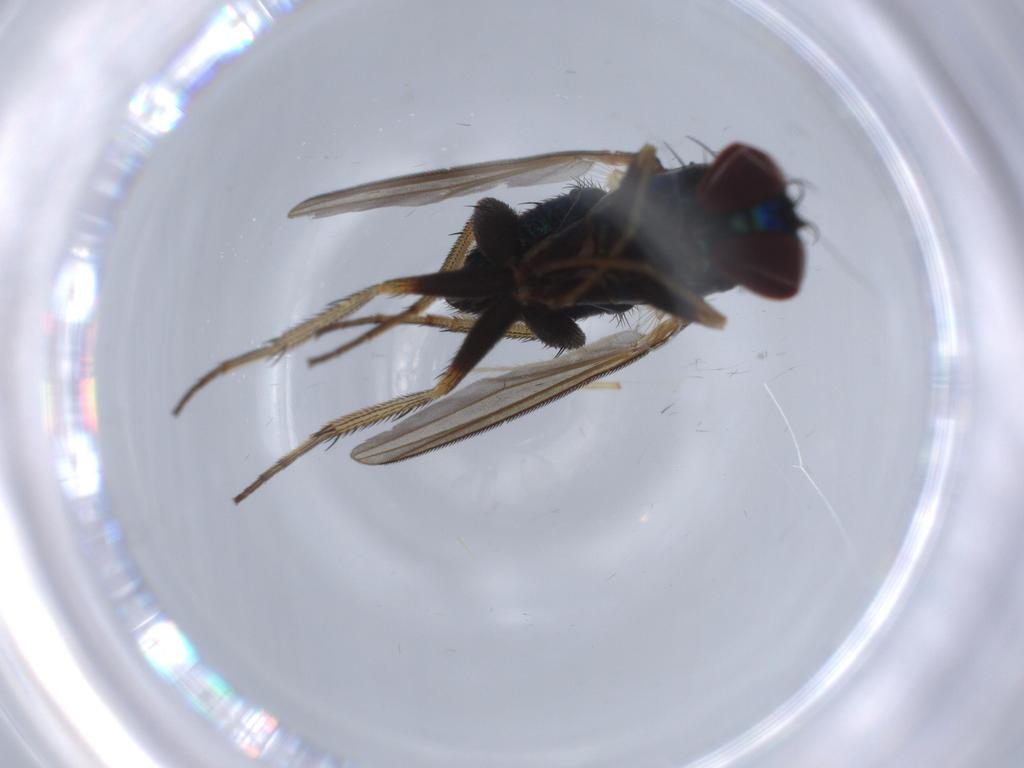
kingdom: Animalia
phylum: Arthropoda
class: Insecta
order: Diptera
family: Dolichopodidae
